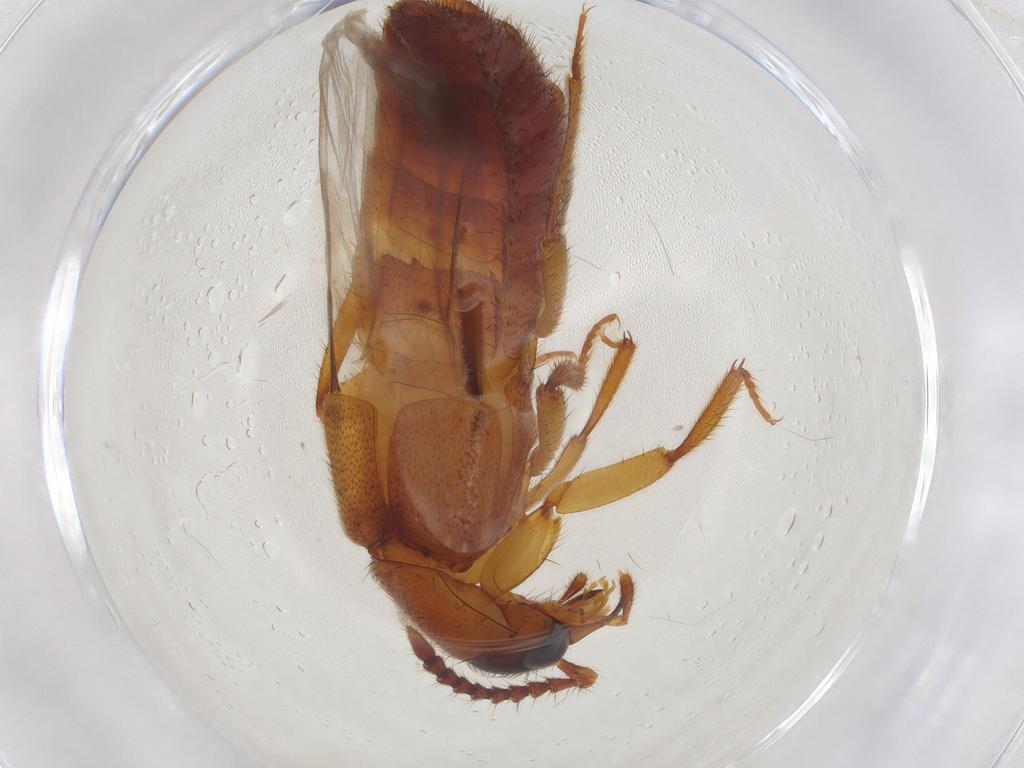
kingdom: Animalia
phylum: Arthropoda
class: Insecta
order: Coleoptera
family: Staphylinidae
